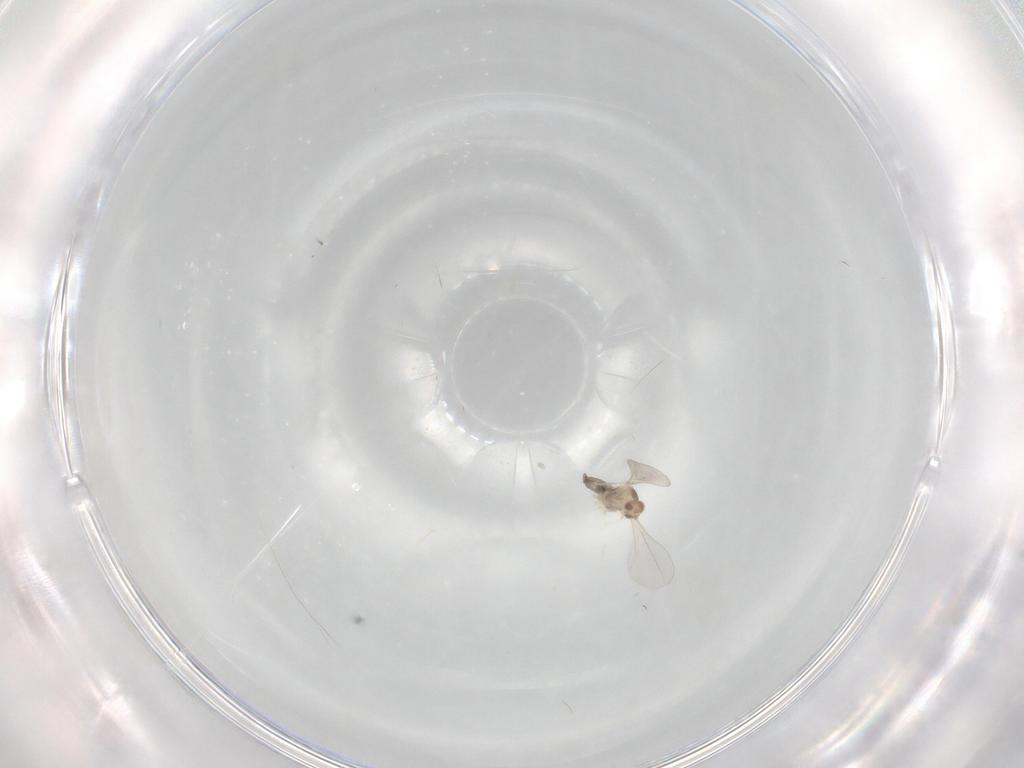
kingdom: Animalia
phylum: Arthropoda
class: Insecta
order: Diptera
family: Cecidomyiidae
